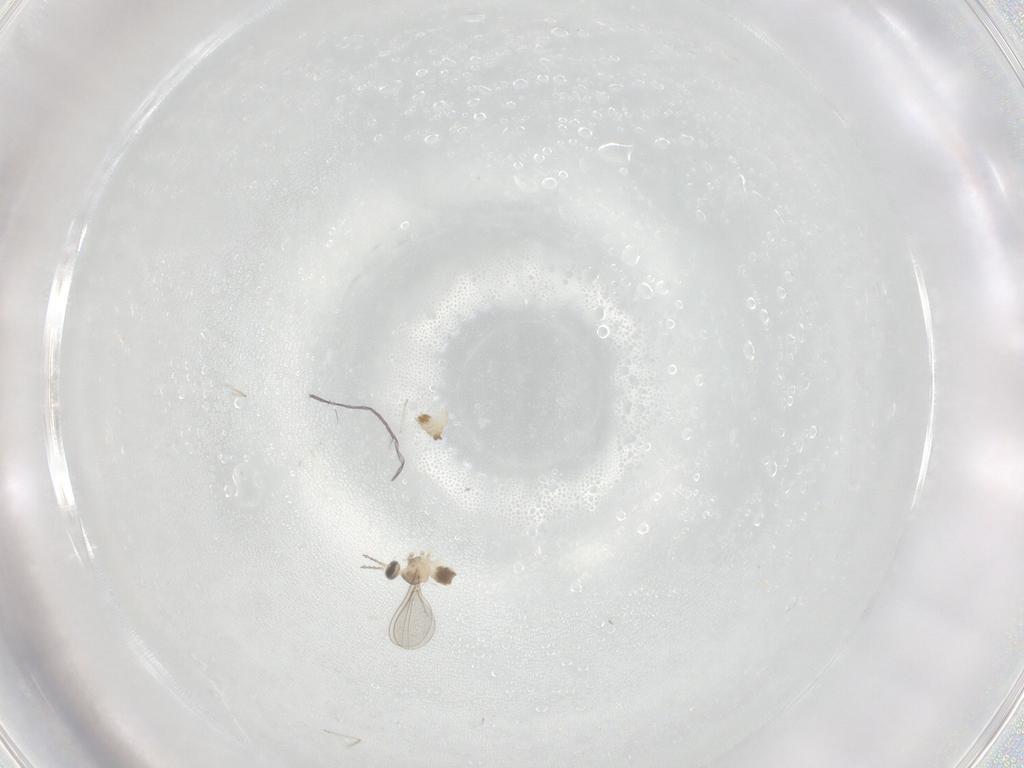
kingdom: Animalia
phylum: Arthropoda
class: Insecta
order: Diptera
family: Cecidomyiidae
